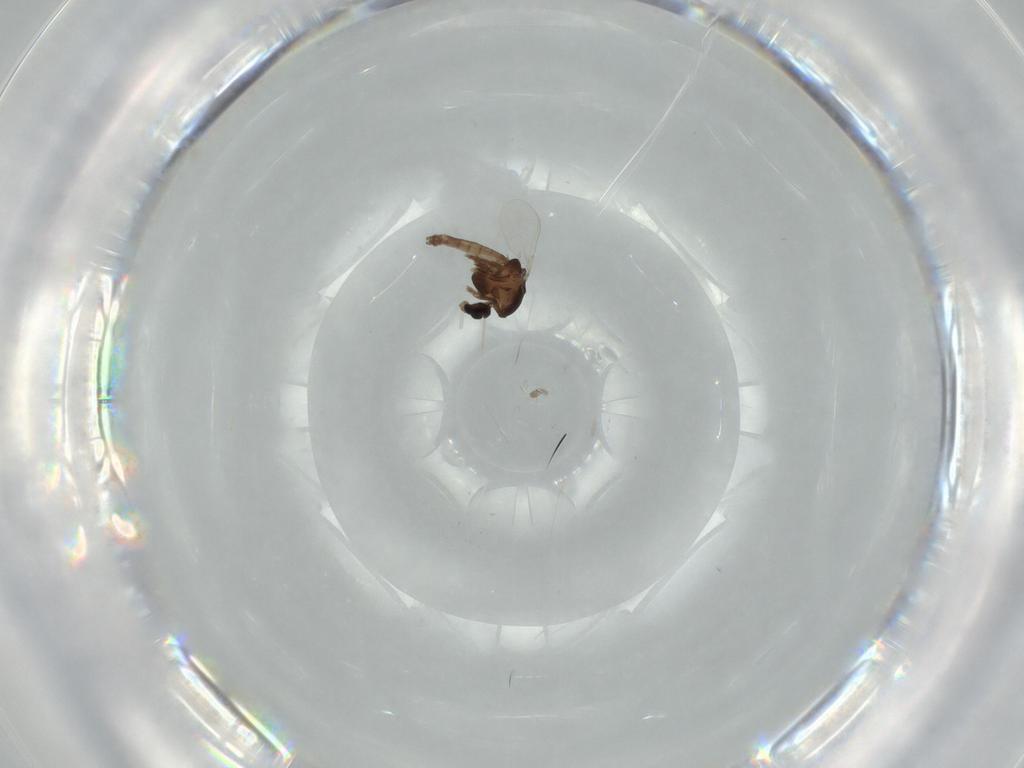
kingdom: Animalia
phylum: Arthropoda
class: Insecta
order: Diptera
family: Chironomidae
